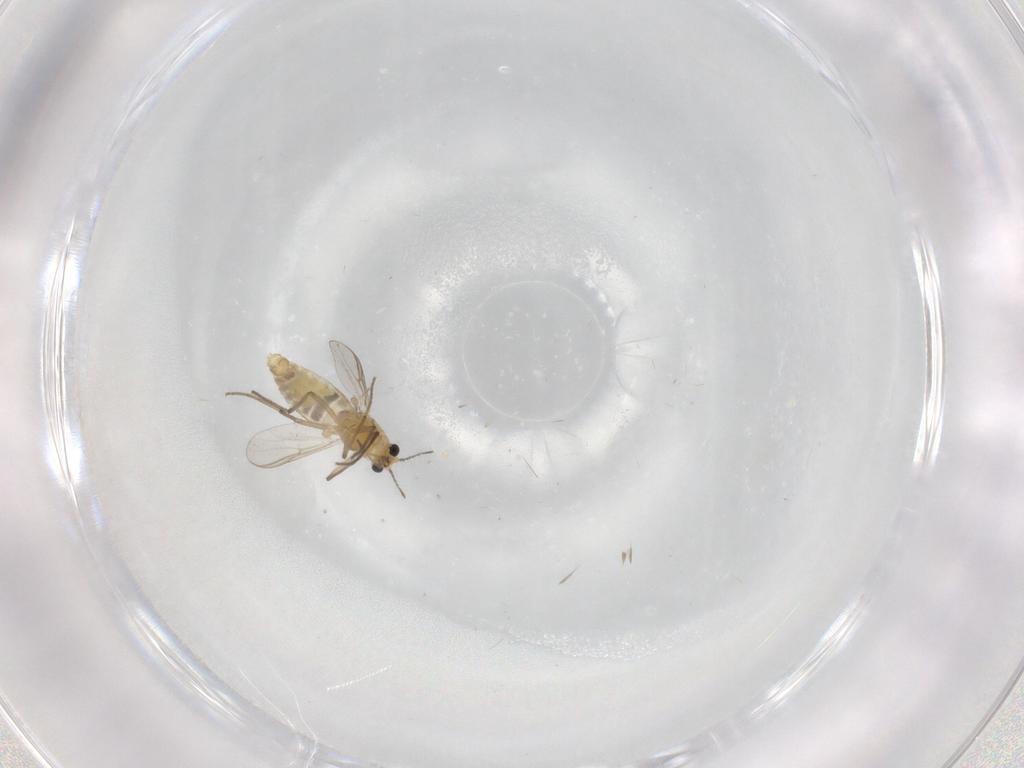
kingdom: Animalia
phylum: Arthropoda
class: Insecta
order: Diptera
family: Chironomidae
